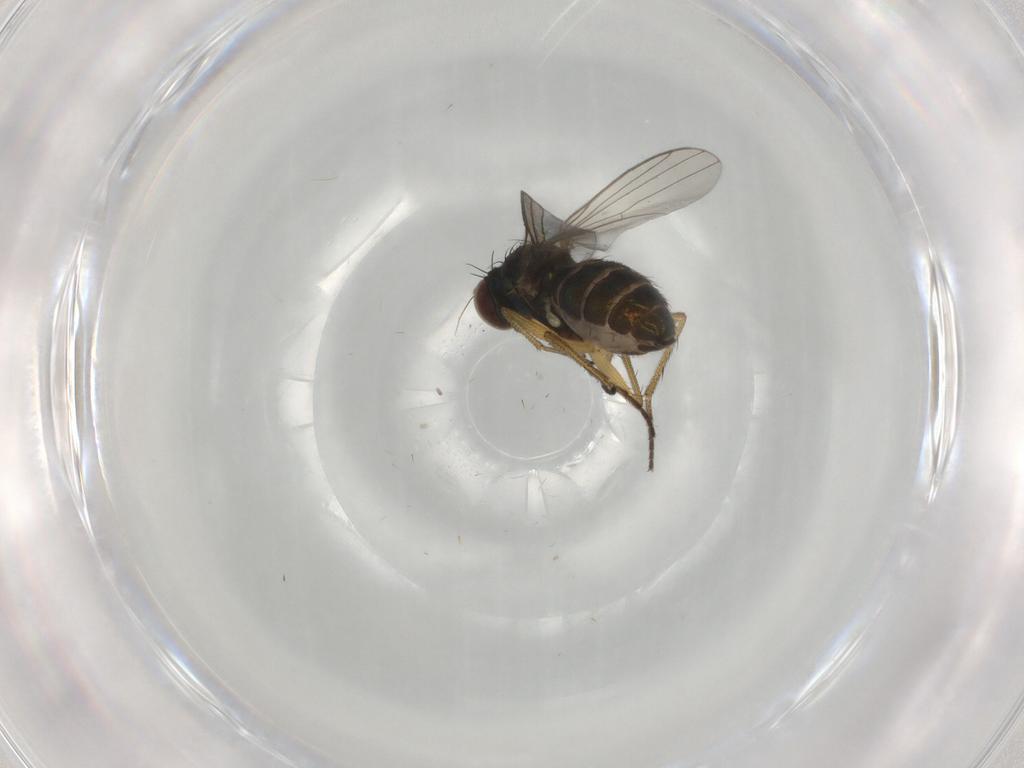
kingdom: Animalia
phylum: Arthropoda
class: Insecta
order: Diptera
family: Dolichopodidae
